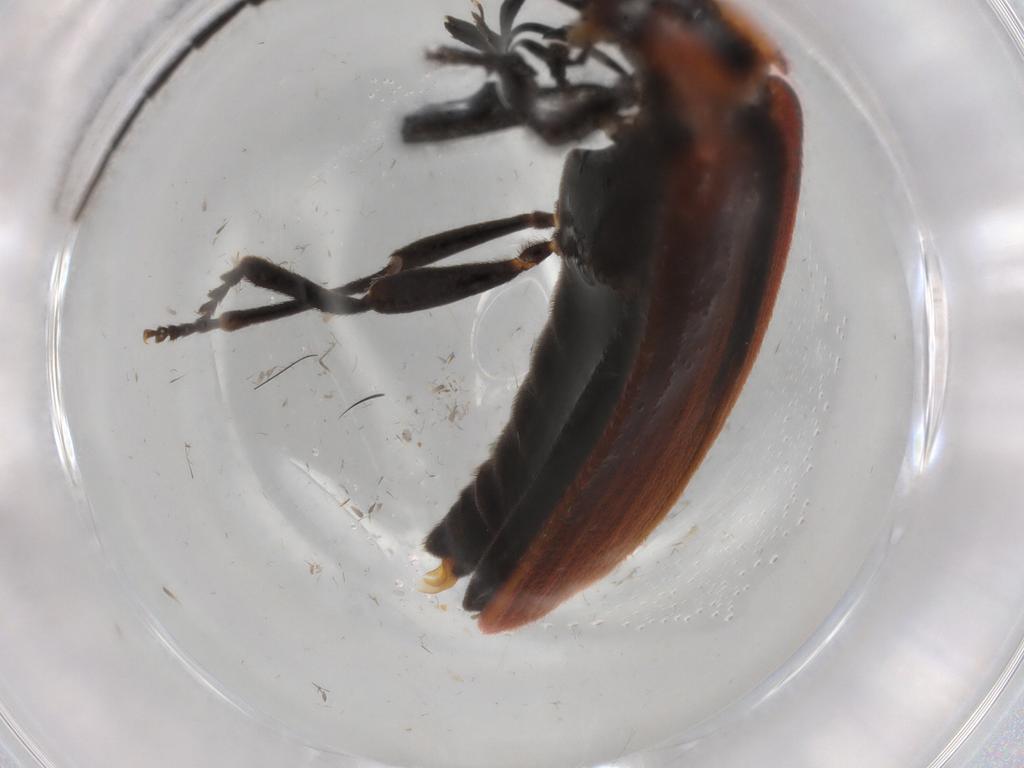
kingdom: Animalia
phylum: Arthropoda
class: Insecta
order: Coleoptera
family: Lycidae
